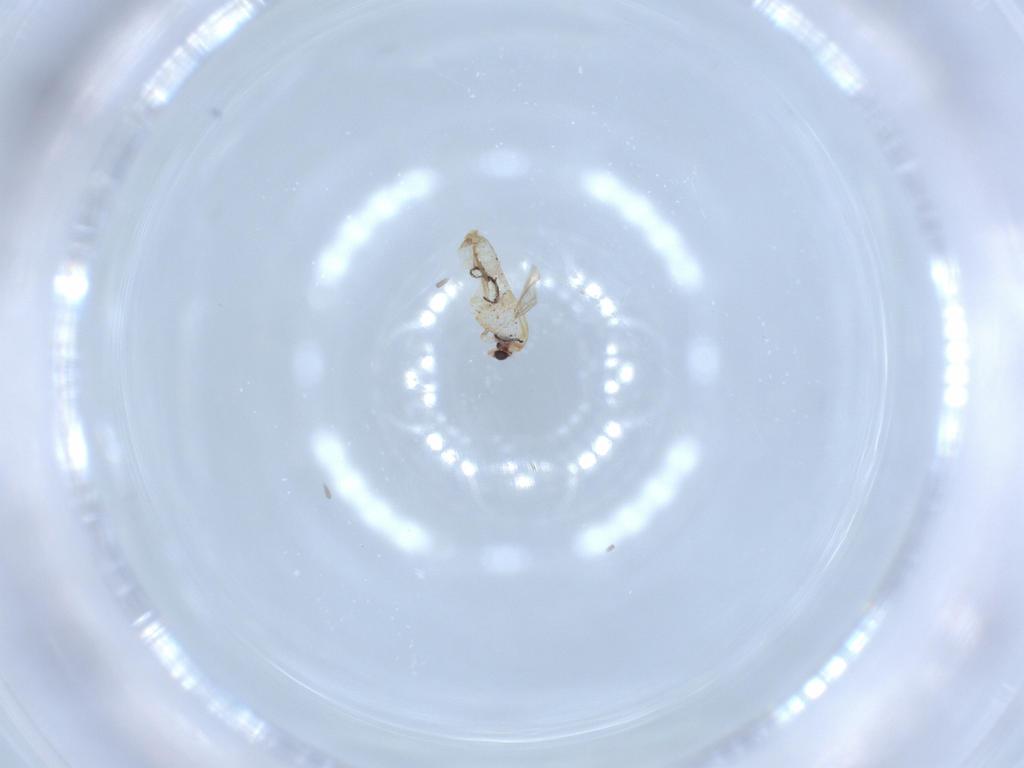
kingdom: Animalia
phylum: Arthropoda
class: Insecta
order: Diptera
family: Chironomidae
